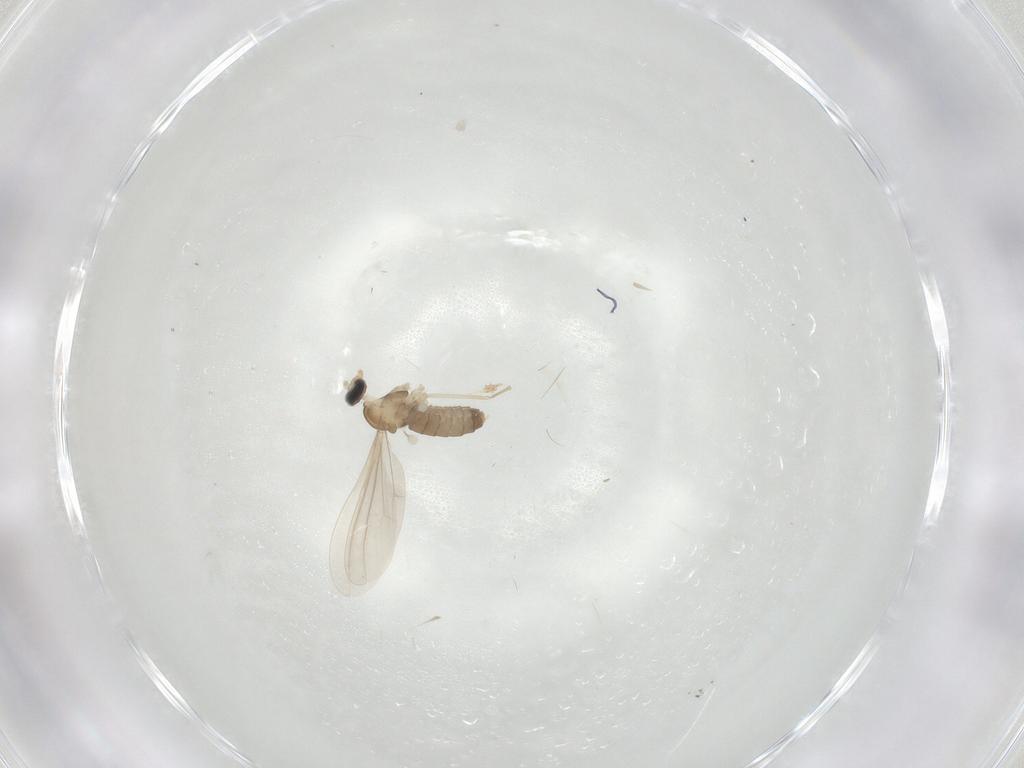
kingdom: Animalia
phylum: Arthropoda
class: Insecta
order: Diptera
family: Cecidomyiidae
